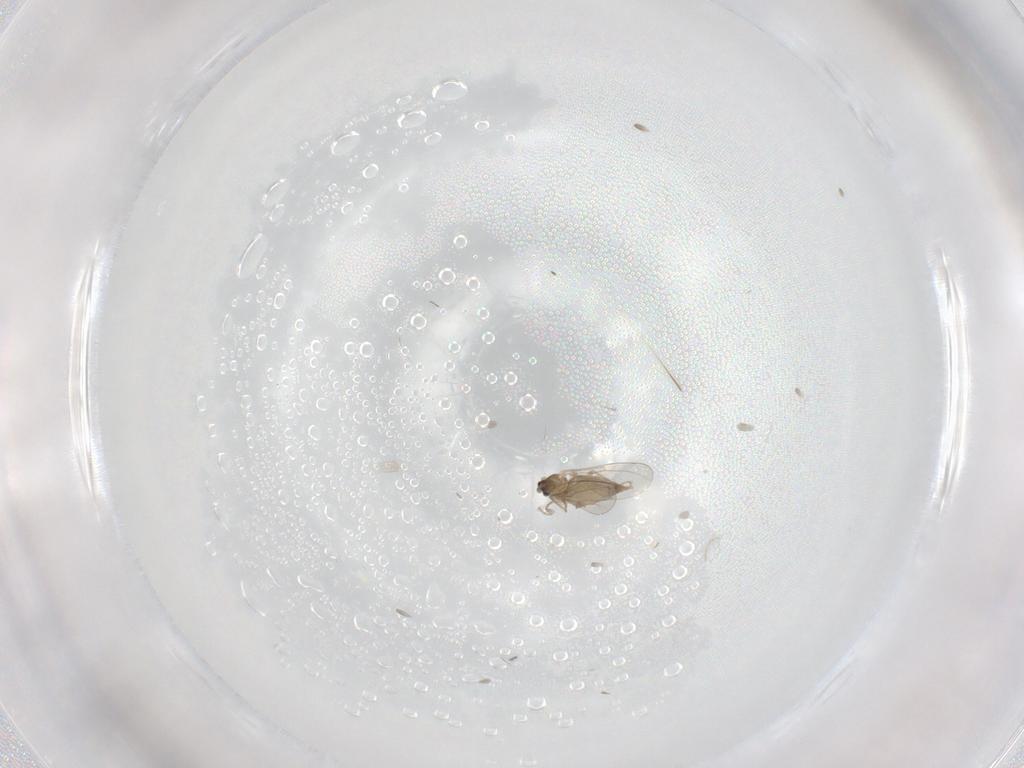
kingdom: Animalia
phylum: Arthropoda
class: Insecta
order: Diptera
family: Cecidomyiidae
